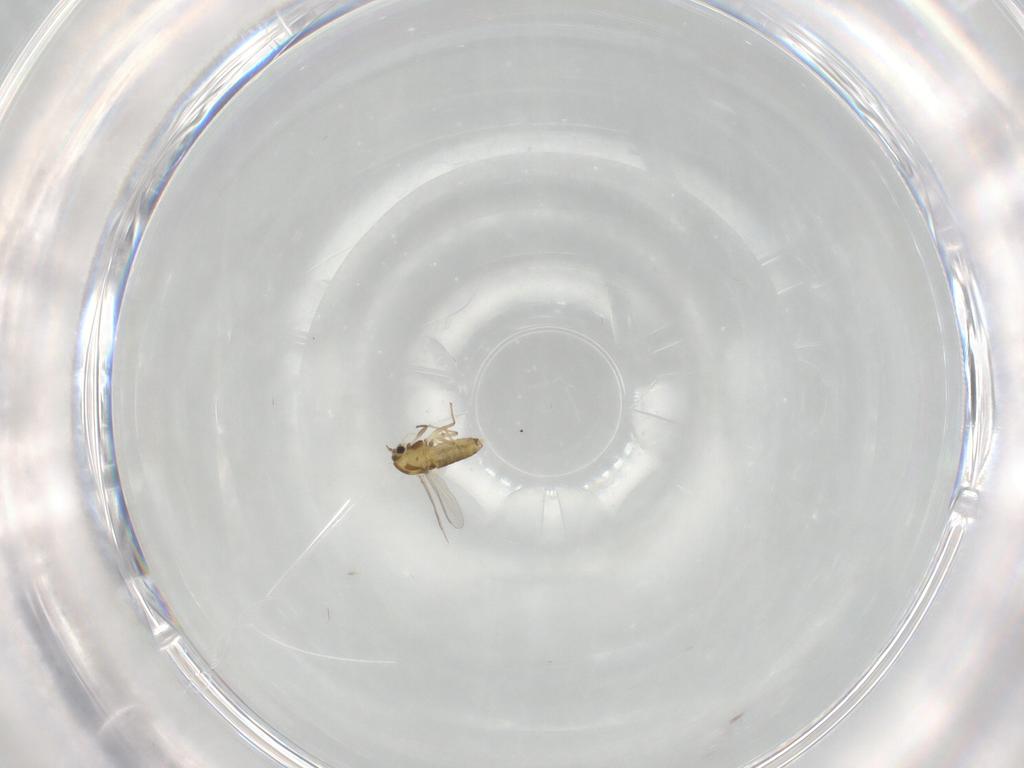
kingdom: Animalia
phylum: Arthropoda
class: Insecta
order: Diptera
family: Chironomidae
